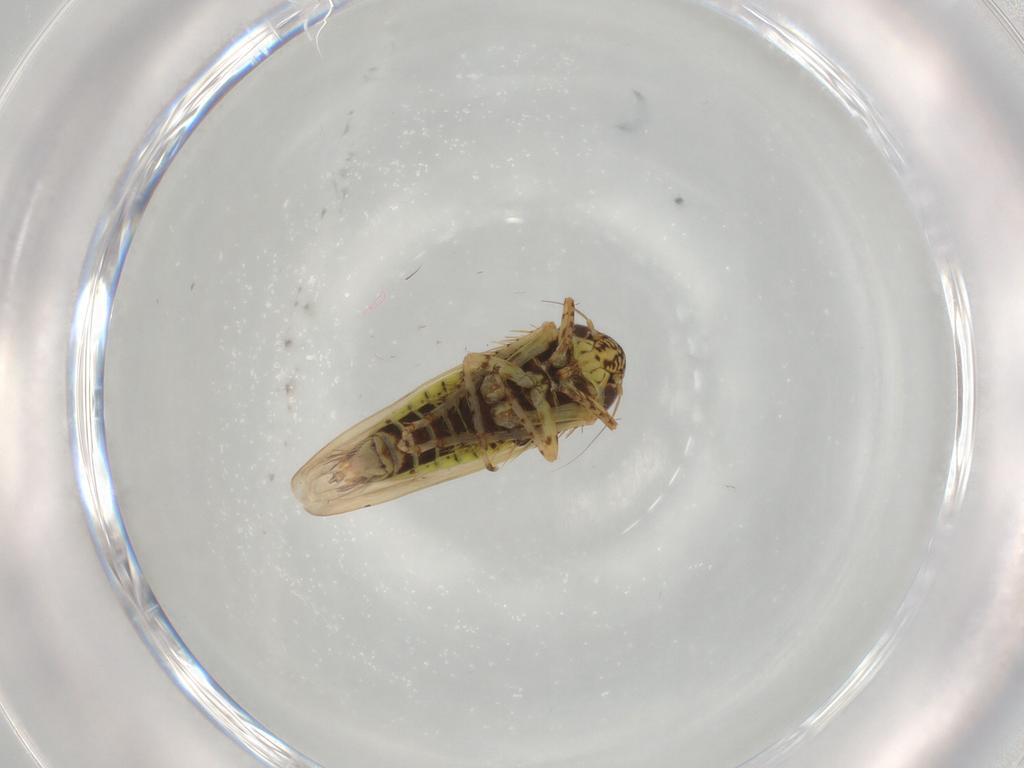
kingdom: Animalia
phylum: Arthropoda
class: Insecta
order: Hemiptera
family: Cicadellidae
